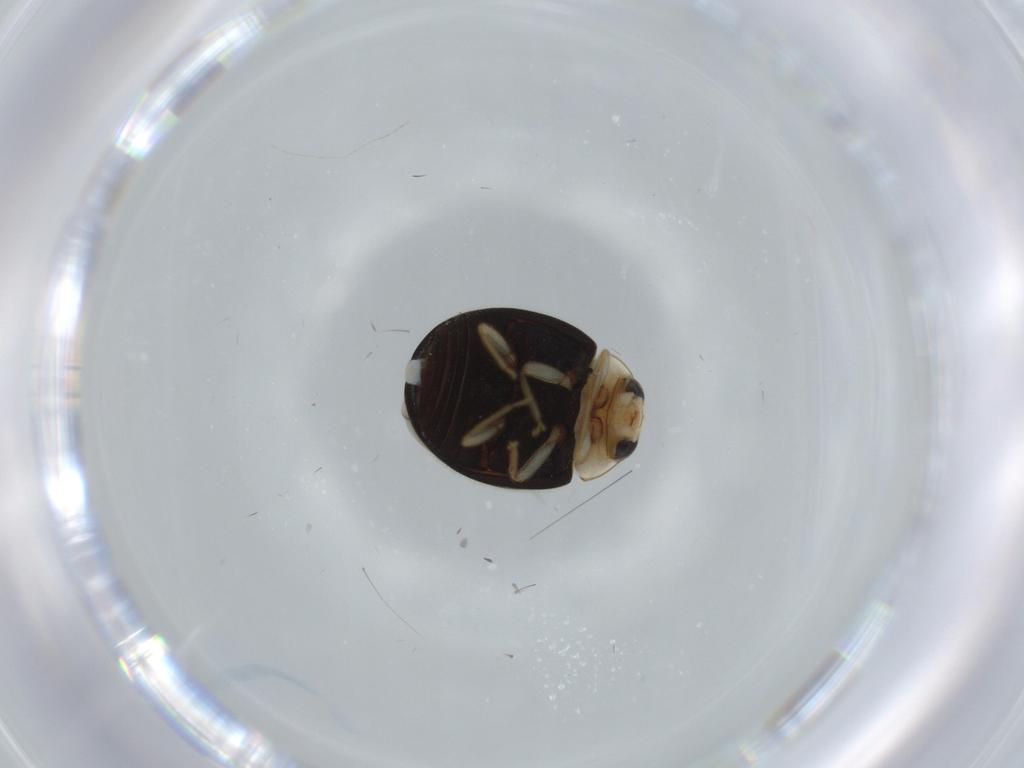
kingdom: Animalia
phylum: Arthropoda
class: Insecta
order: Coleoptera
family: Coccinellidae
